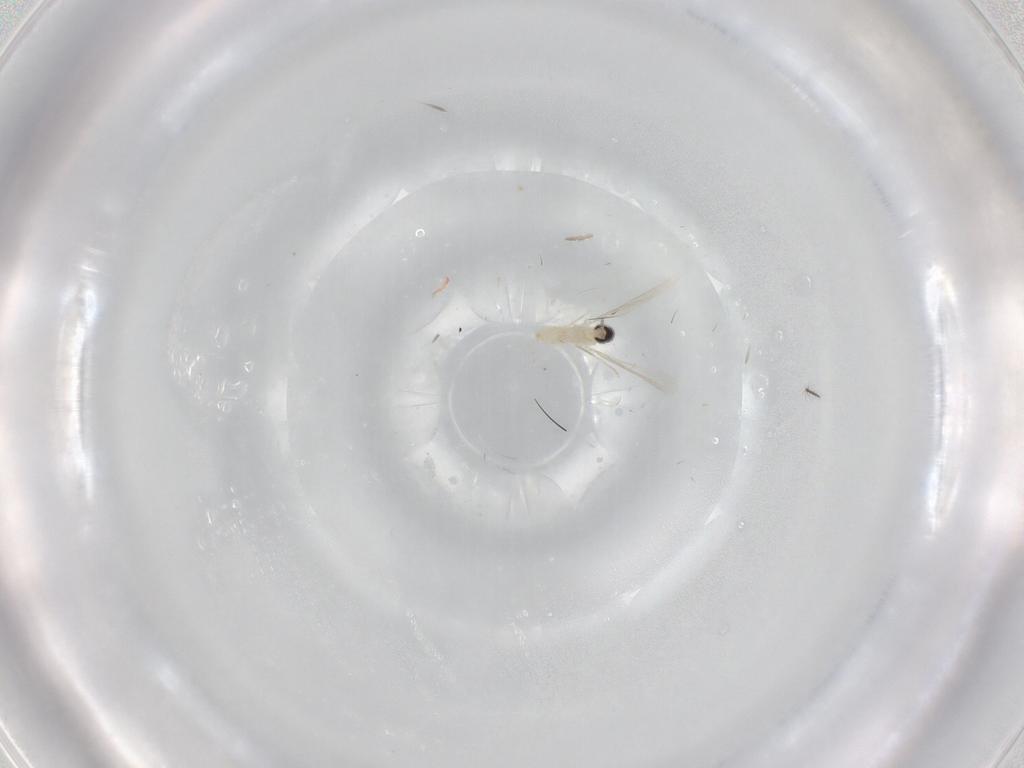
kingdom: Animalia
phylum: Arthropoda
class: Insecta
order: Diptera
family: Cecidomyiidae
